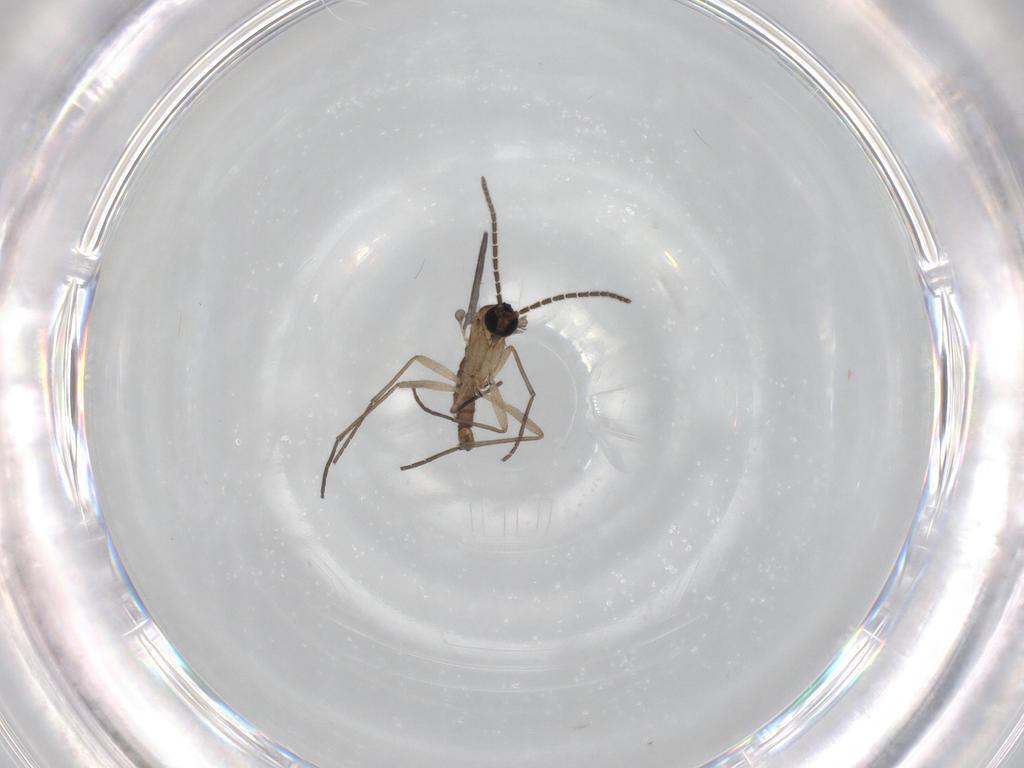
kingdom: Animalia
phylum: Arthropoda
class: Insecta
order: Diptera
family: Sciaridae
